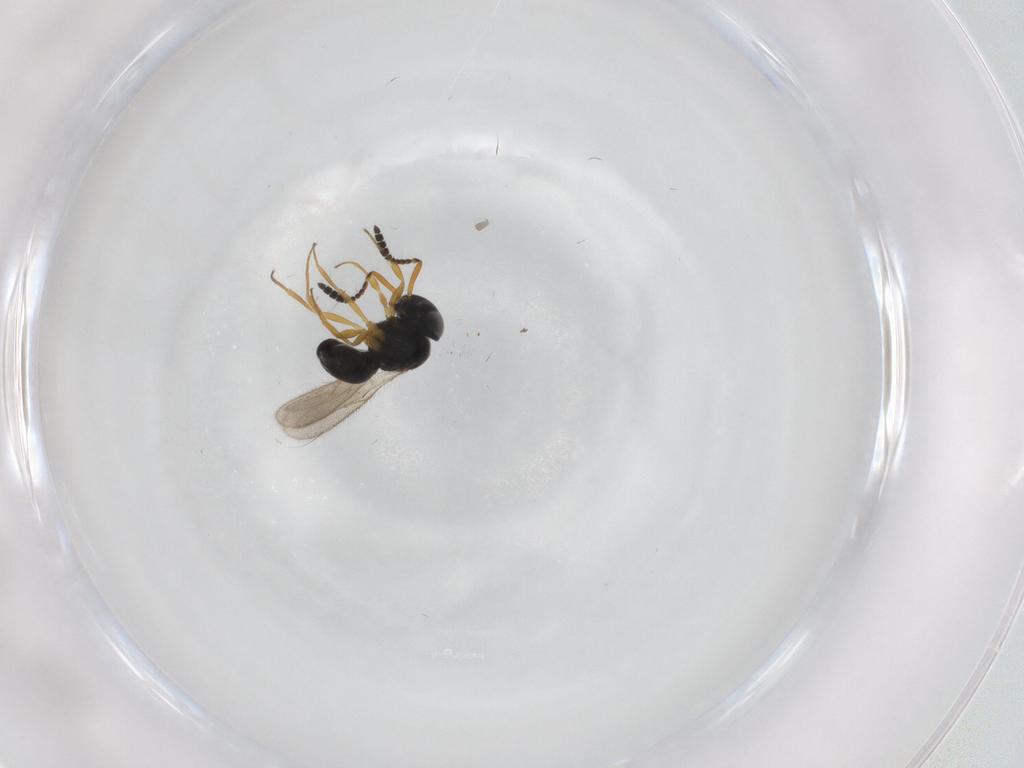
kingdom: Animalia
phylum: Arthropoda
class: Insecta
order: Hymenoptera
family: Scelionidae
